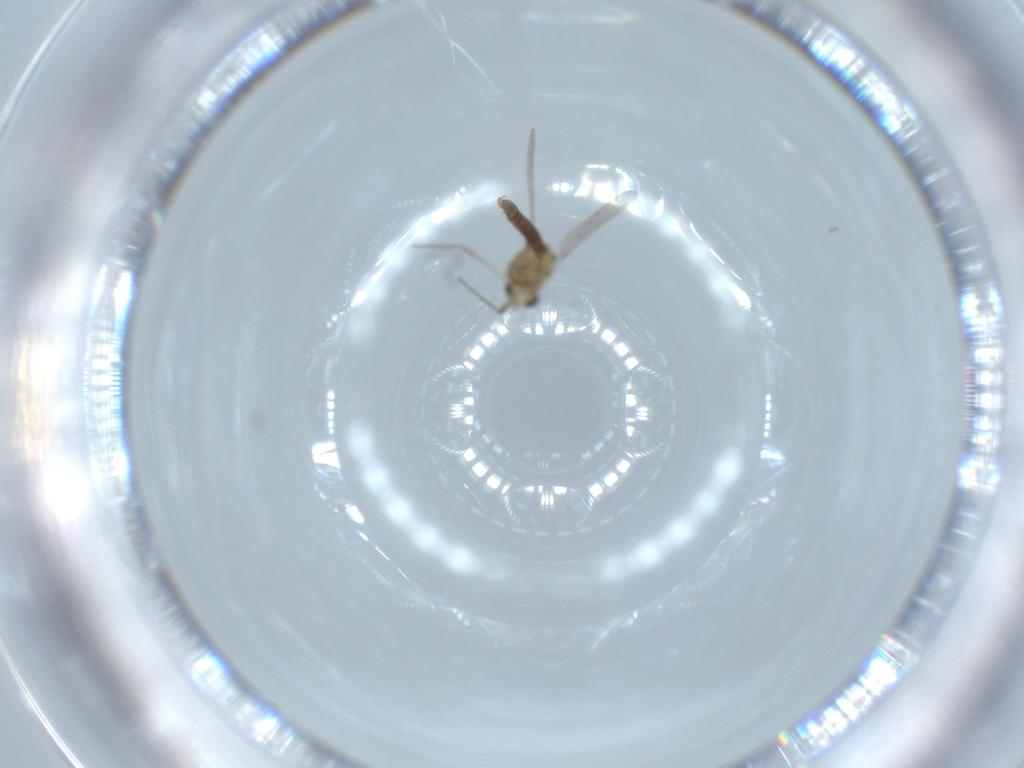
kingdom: Animalia
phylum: Arthropoda
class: Insecta
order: Diptera
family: Chironomidae
